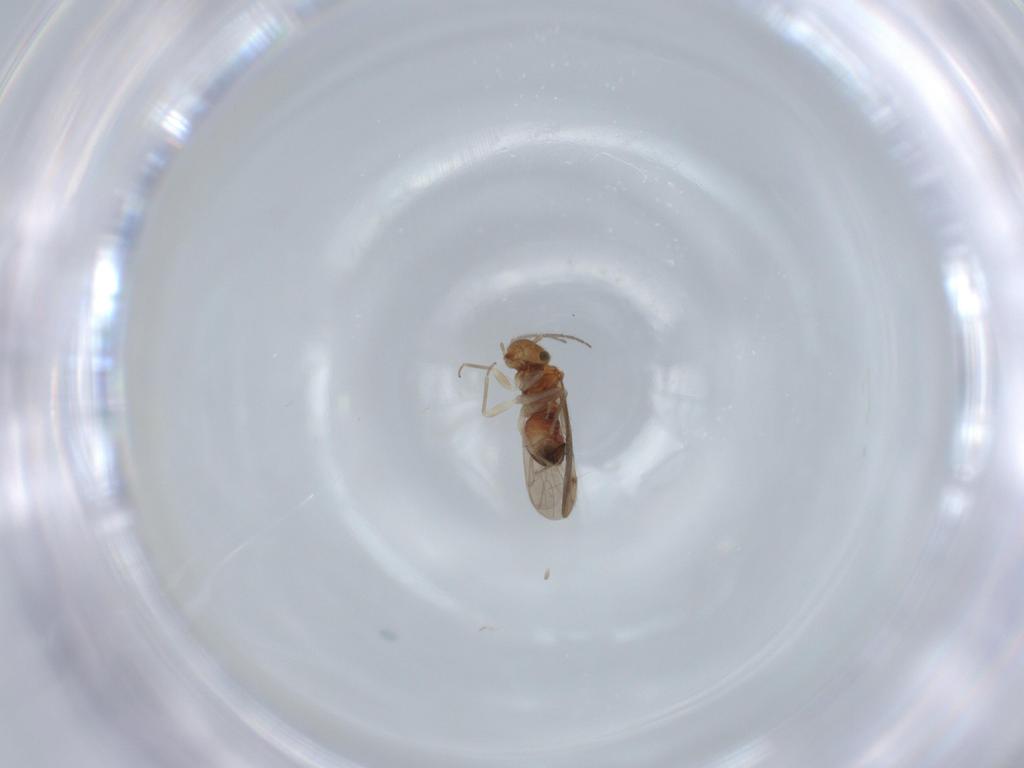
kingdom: Animalia
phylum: Arthropoda
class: Insecta
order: Psocodea
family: Ectopsocidae
